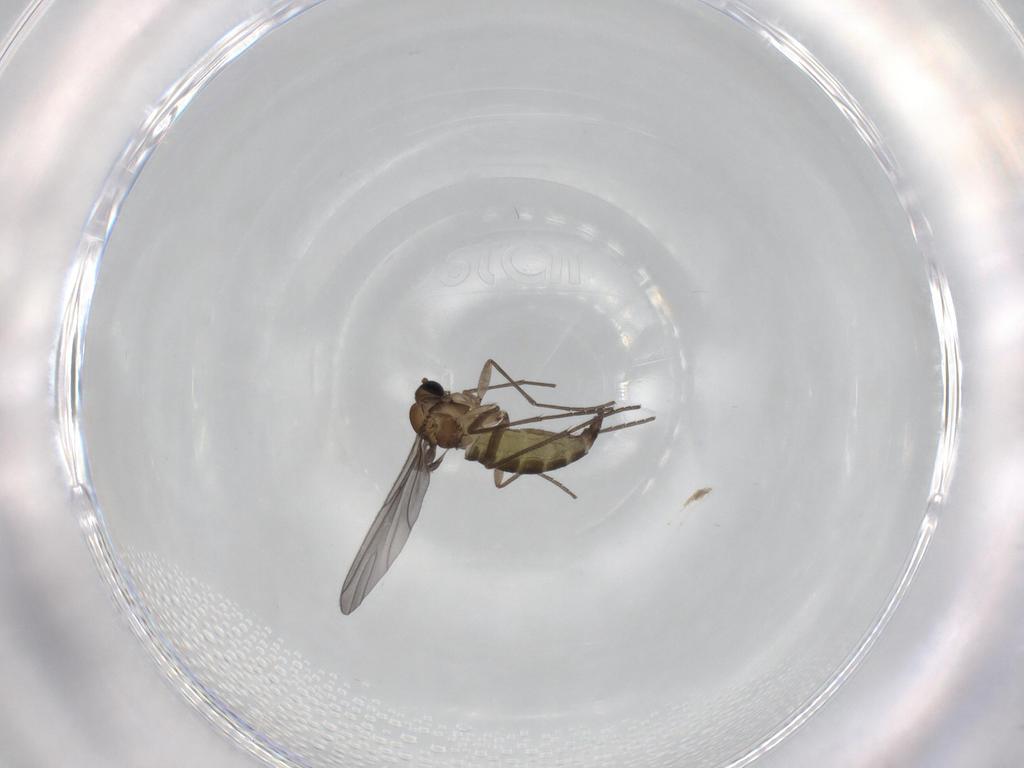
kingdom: Animalia
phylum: Arthropoda
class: Insecta
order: Diptera
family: Sciaridae
